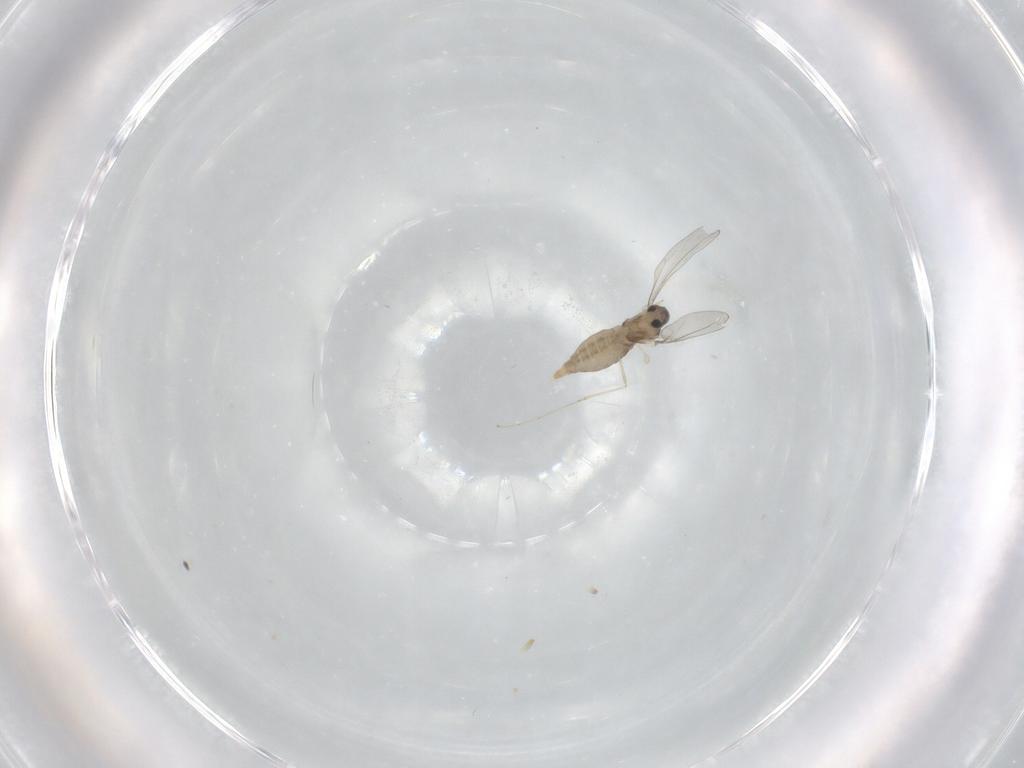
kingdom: Animalia
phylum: Arthropoda
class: Insecta
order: Diptera
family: Cecidomyiidae
